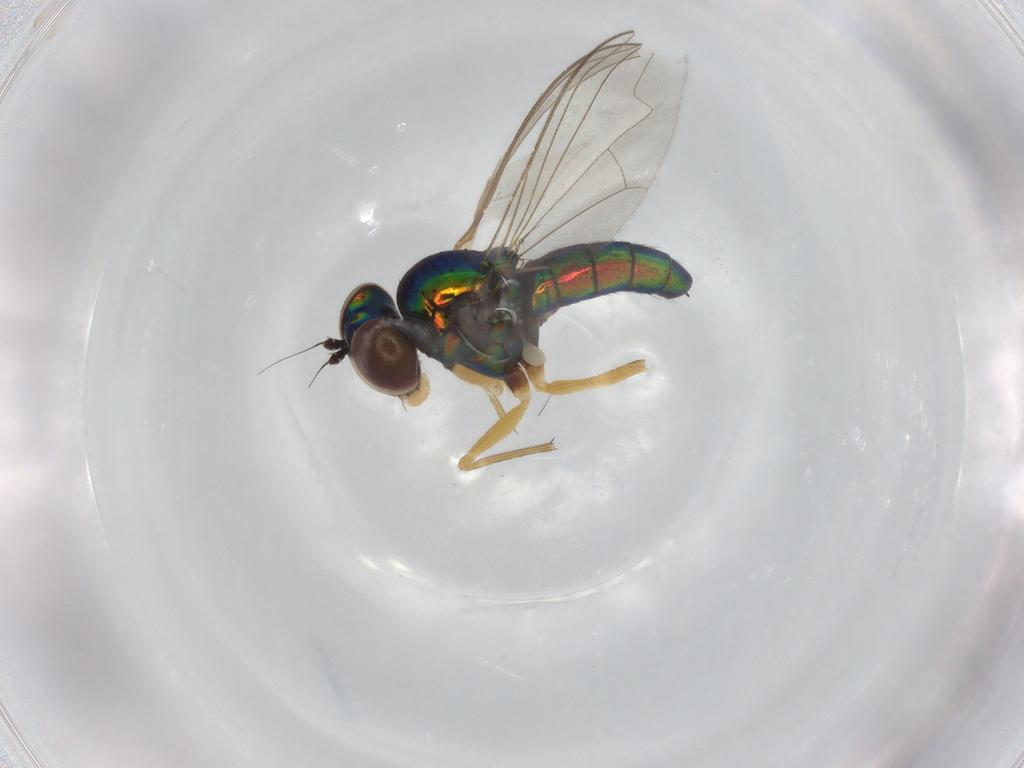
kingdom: Animalia
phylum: Arthropoda
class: Insecta
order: Diptera
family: Dolichopodidae
